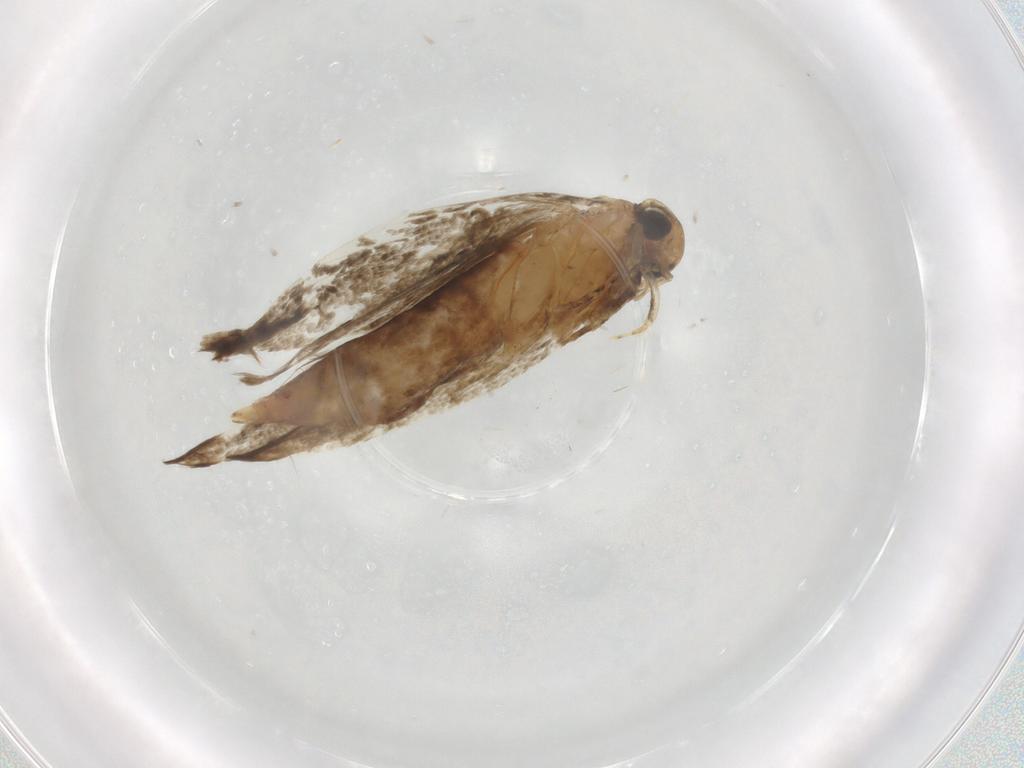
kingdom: Animalia
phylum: Arthropoda
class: Insecta
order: Lepidoptera
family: Gelechiidae
